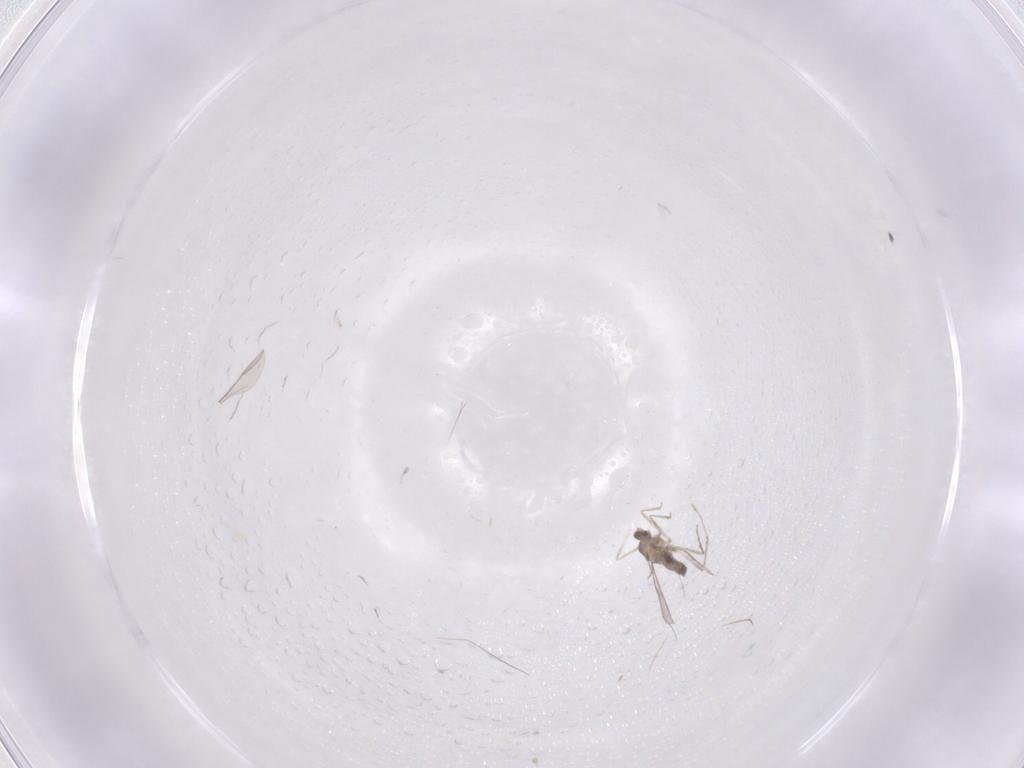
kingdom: Animalia
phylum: Arthropoda
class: Insecta
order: Diptera
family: Cecidomyiidae
